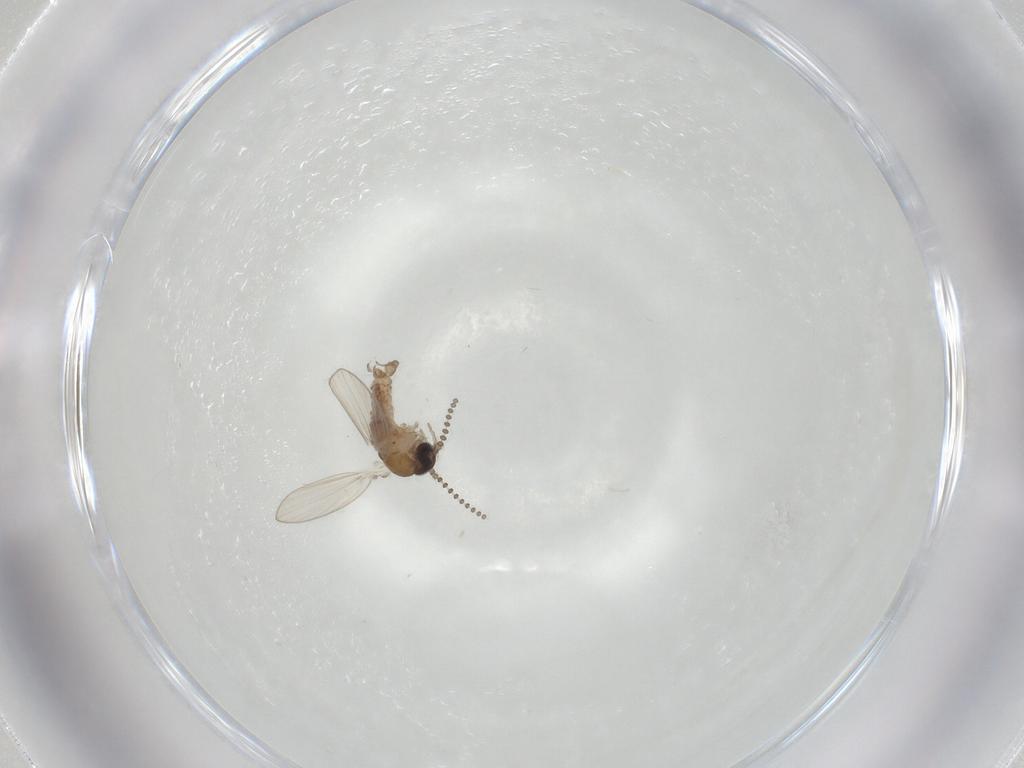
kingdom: Animalia
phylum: Arthropoda
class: Insecta
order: Diptera
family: Psychodidae
